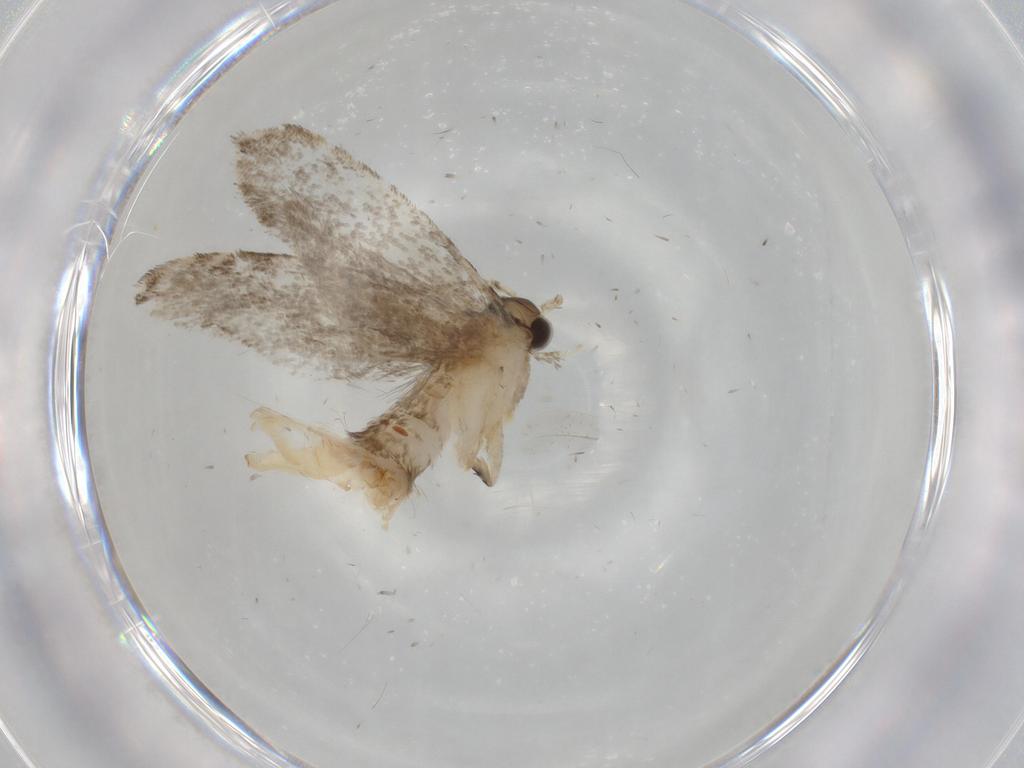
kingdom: Animalia
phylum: Arthropoda
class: Insecta
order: Lepidoptera
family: Tineidae
